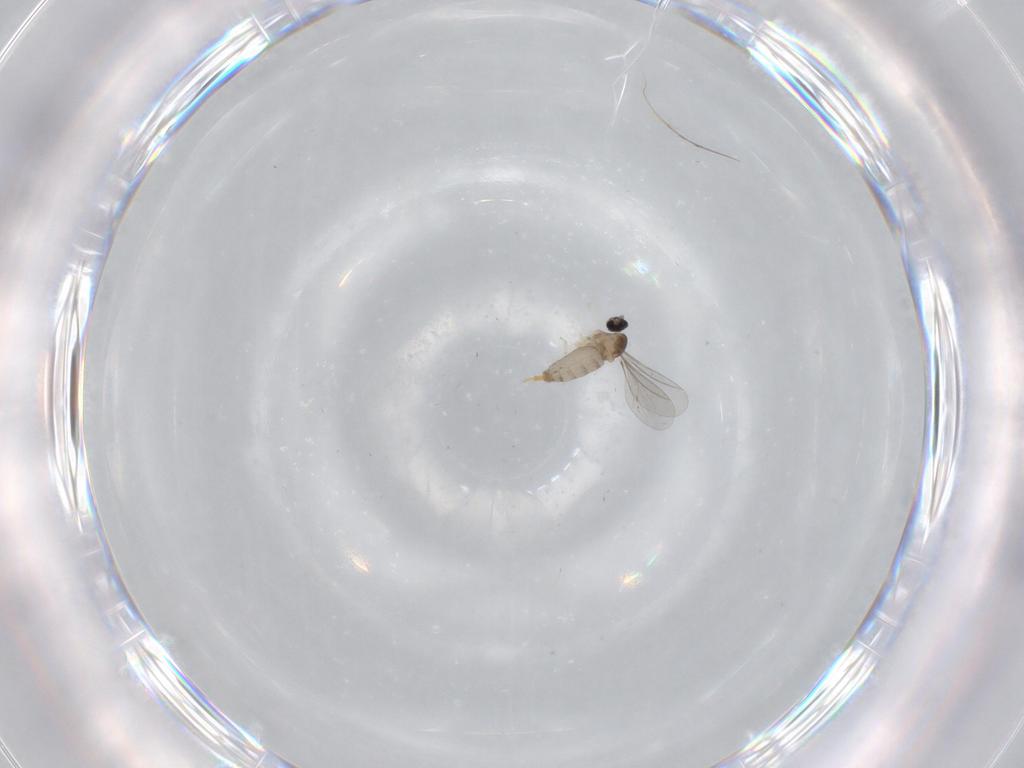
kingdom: Animalia
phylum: Arthropoda
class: Insecta
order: Diptera
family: Cecidomyiidae
